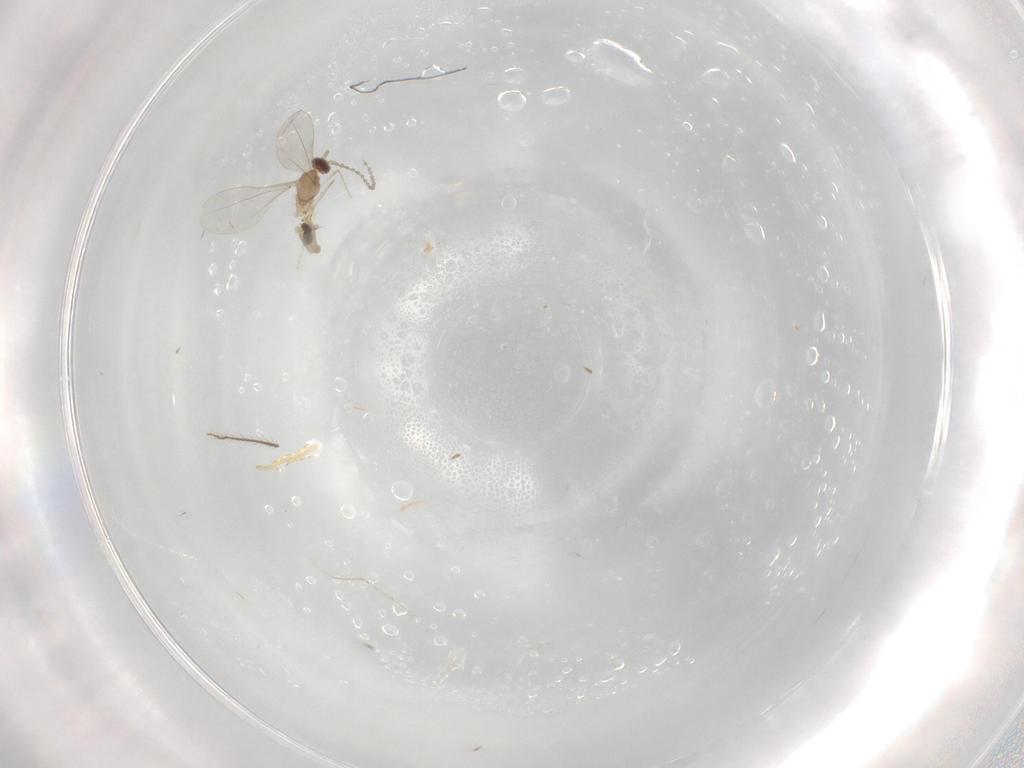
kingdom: Animalia
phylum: Arthropoda
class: Insecta
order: Diptera
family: Cecidomyiidae
